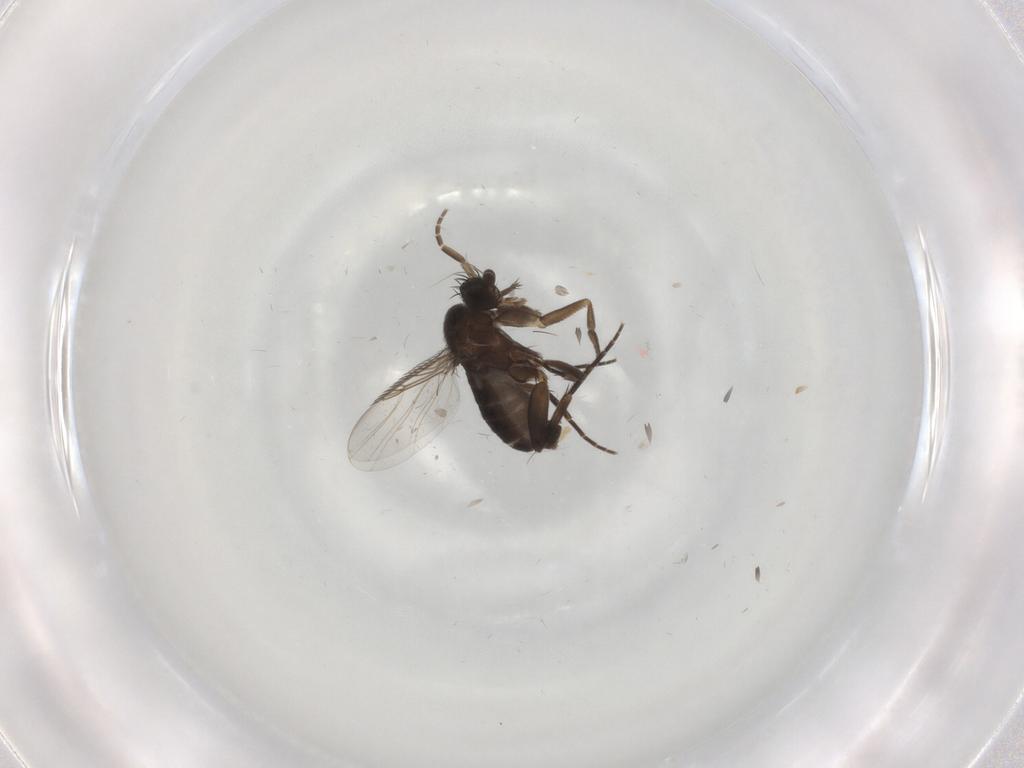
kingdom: Animalia
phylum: Arthropoda
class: Insecta
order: Diptera
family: Phoridae
